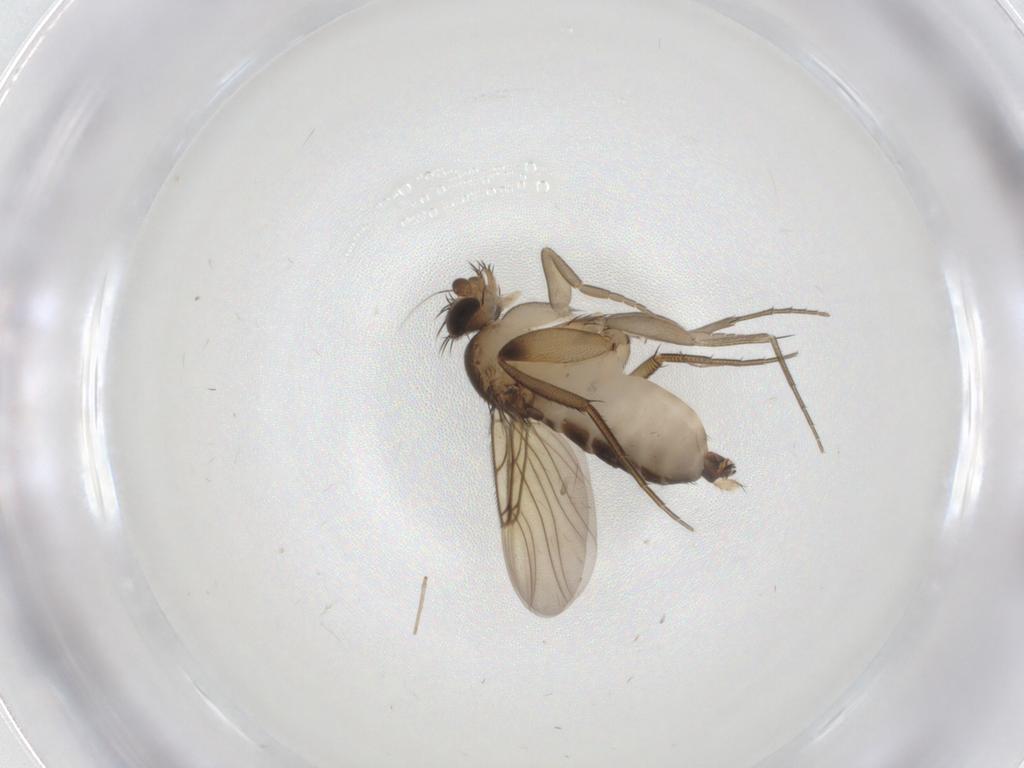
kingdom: Animalia
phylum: Arthropoda
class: Insecta
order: Diptera
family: Phoridae
